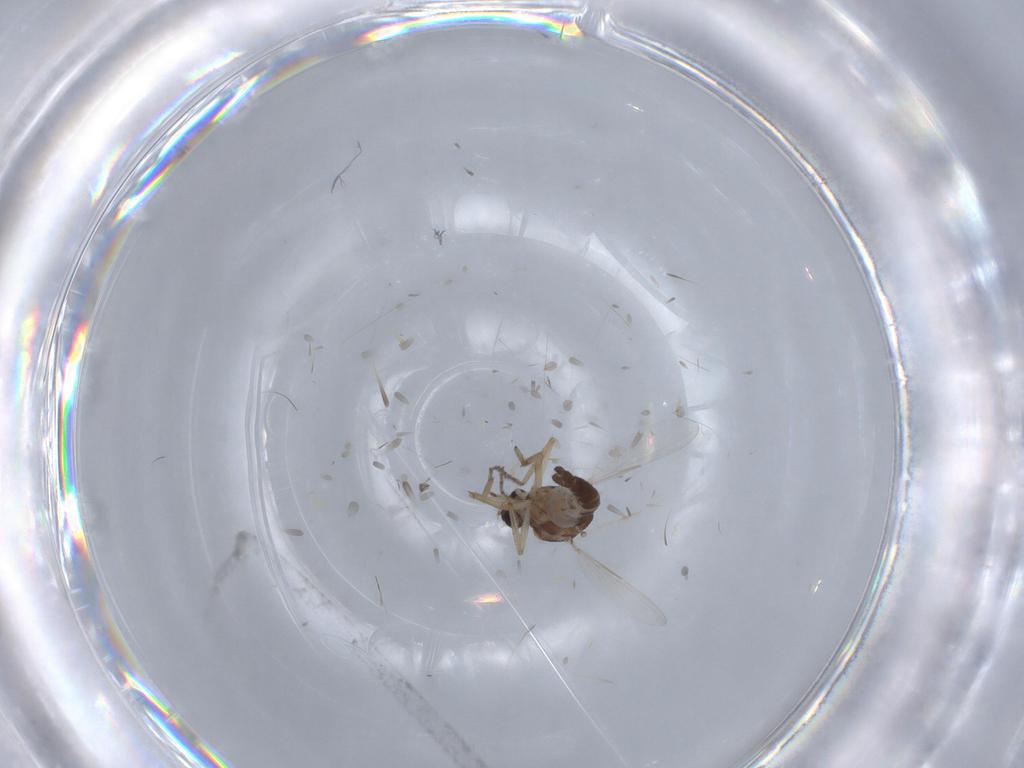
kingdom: Animalia
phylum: Arthropoda
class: Insecta
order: Diptera
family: Ceratopogonidae
